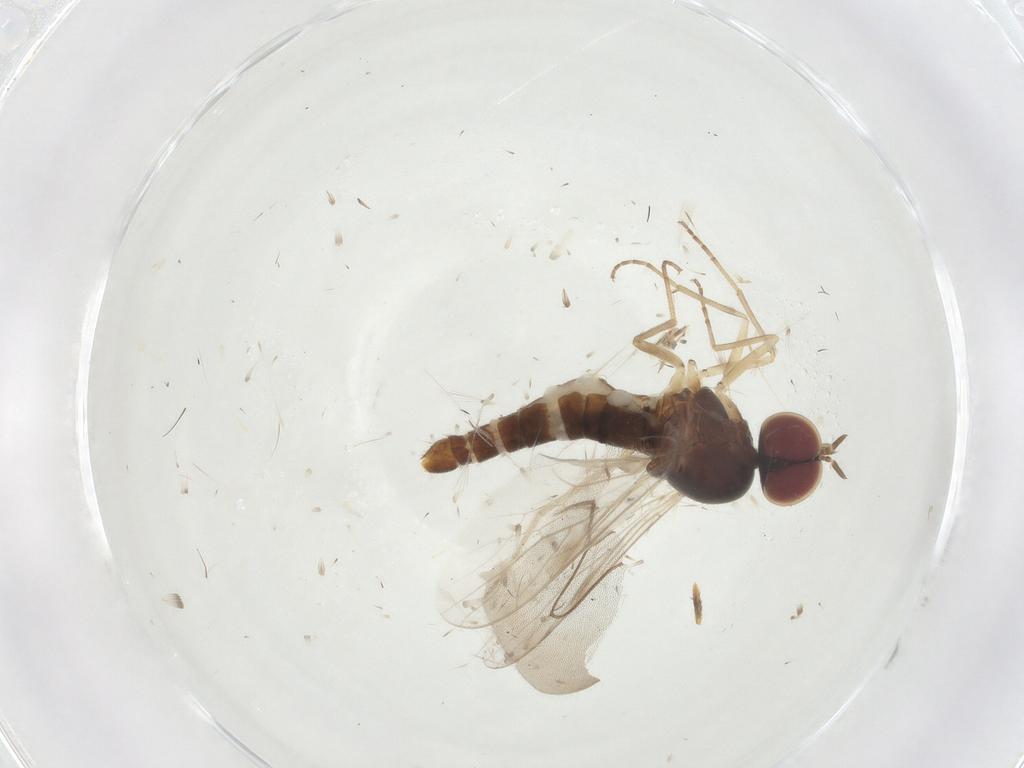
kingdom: Animalia
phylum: Arthropoda
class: Insecta
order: Diptera
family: Scenopinidae
